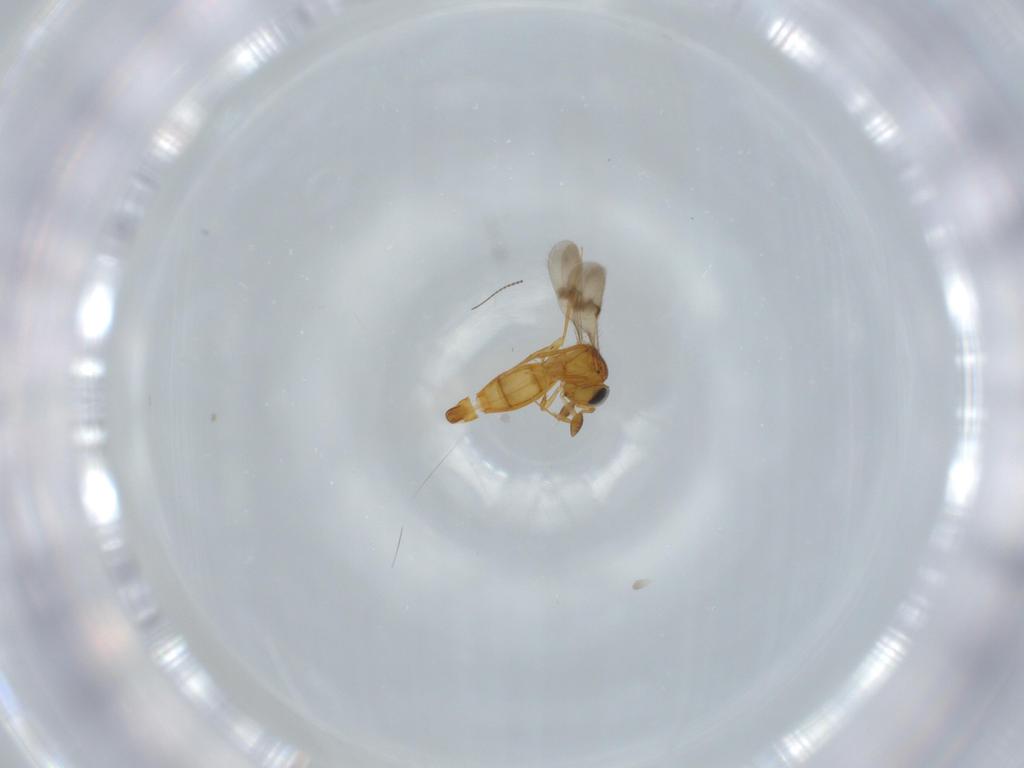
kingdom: Animalia
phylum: Arthropoda
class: Insecta
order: Hymenoptera
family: Scelionidae
